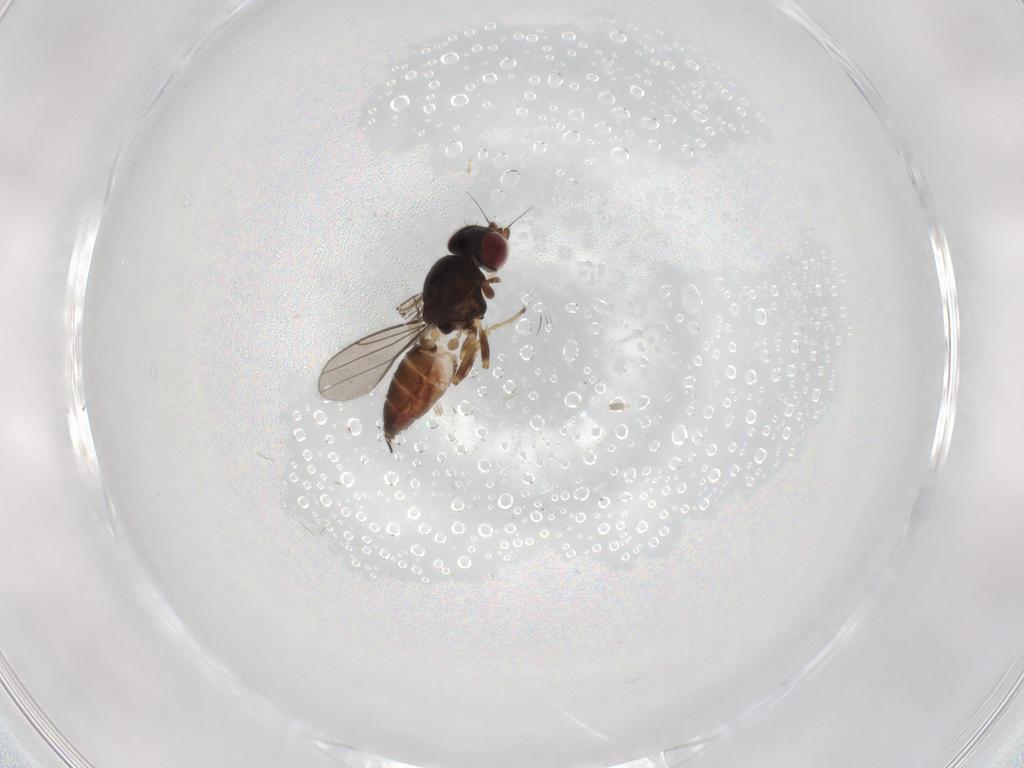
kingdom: Animalia
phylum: Arthropoda
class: Insecta
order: Diptera
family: Chloropidae
